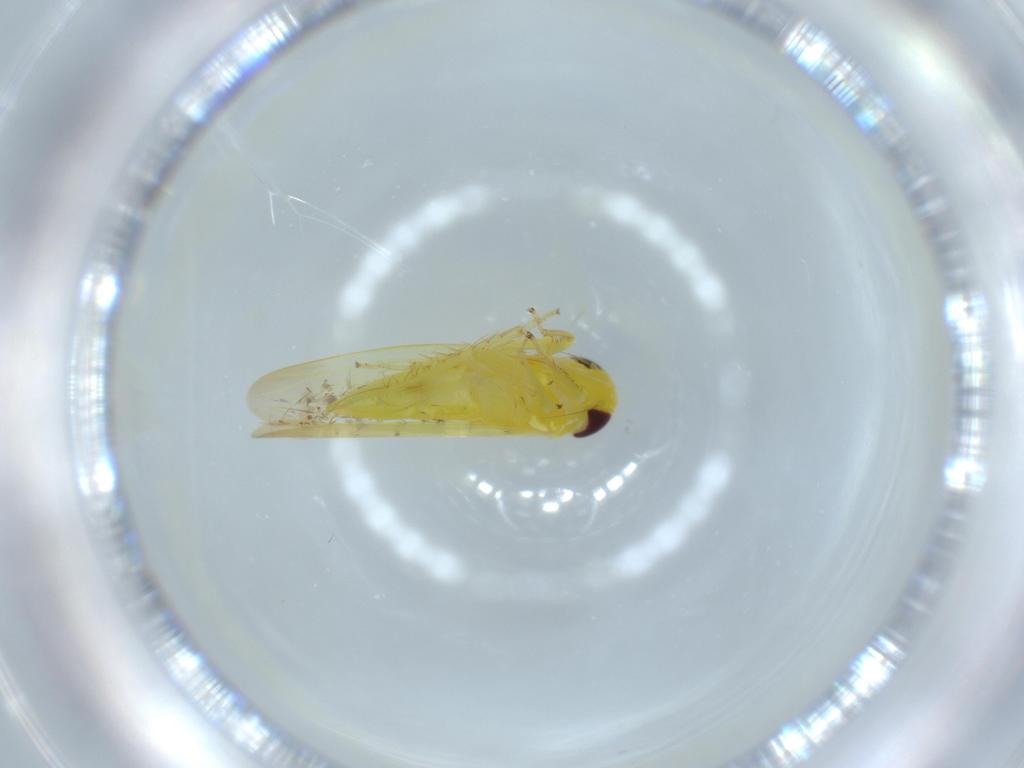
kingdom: Animalia
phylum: Arthropoda
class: Insecta
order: Hemiptera
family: Cicadellidae
